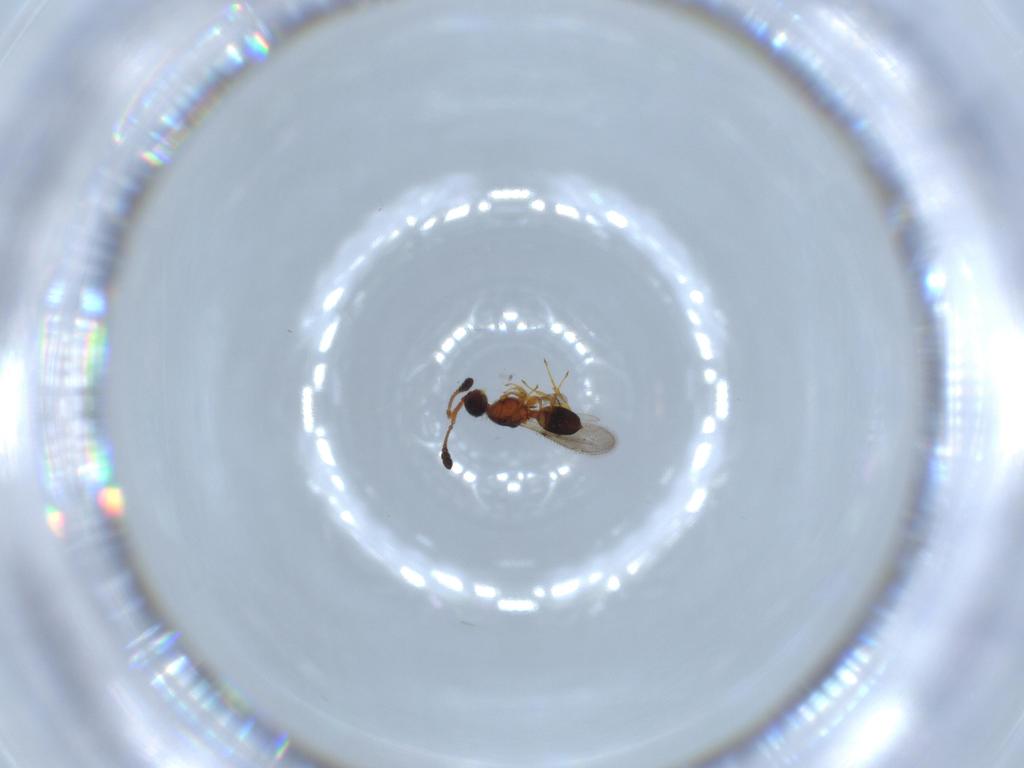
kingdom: Animalia
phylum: Arthropoda
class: Insecta
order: Hymenoptera
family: Diapriidae
